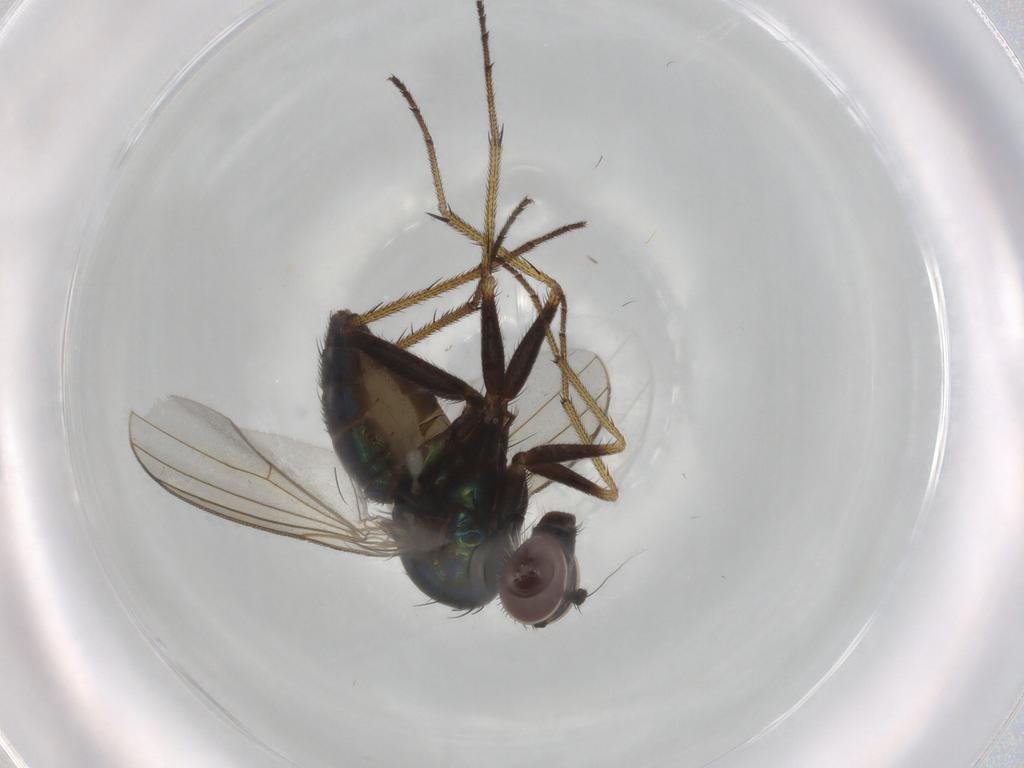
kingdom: Animalia
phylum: Arthropoda
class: Insecta
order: Diptera
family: Dolichopodidae
